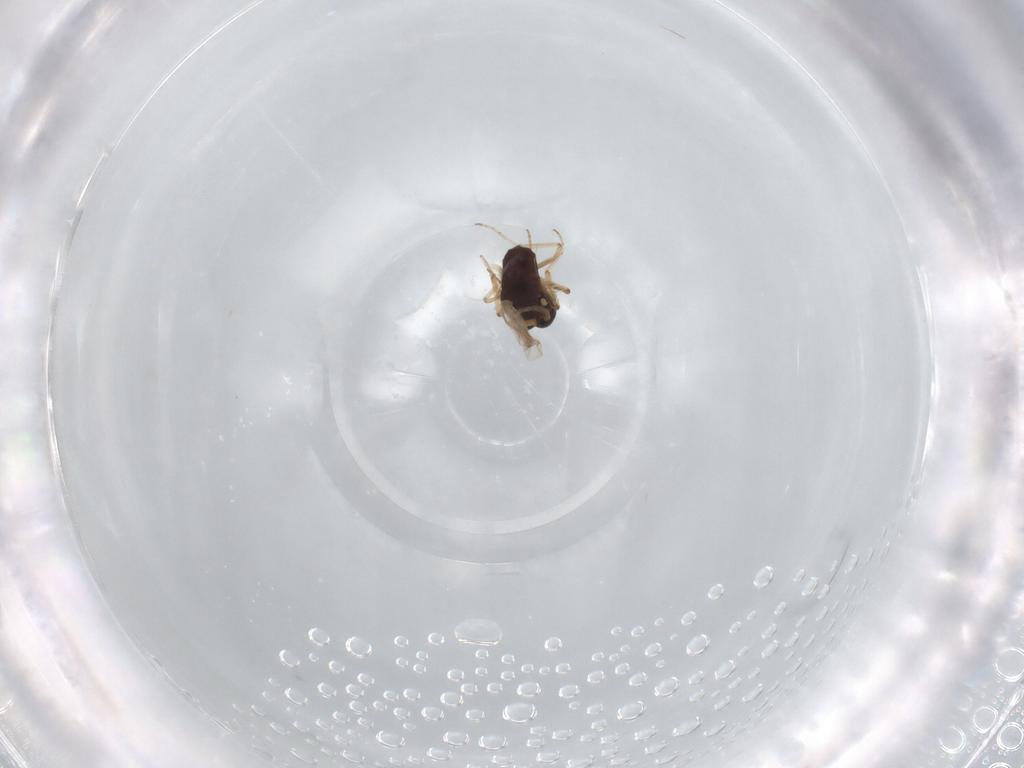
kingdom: Animalia
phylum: Arthropoda
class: Insecta
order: Diptera
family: Ceratopogonidae
